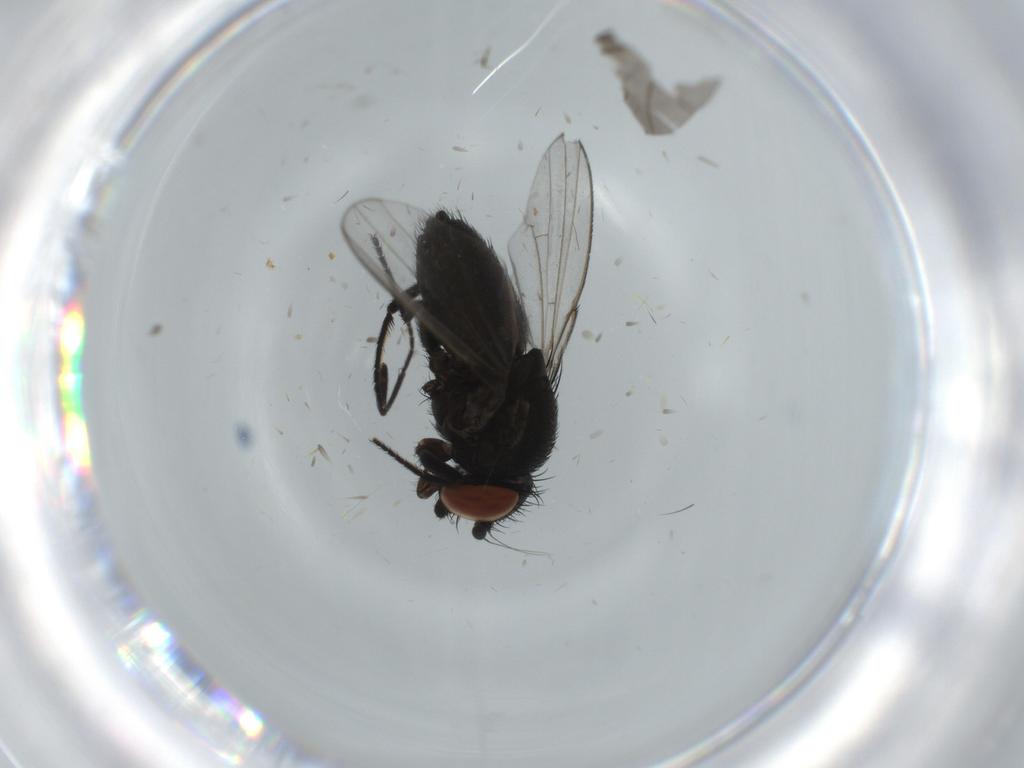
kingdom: Animalia
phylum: Arthropoda
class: Insecta
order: Diptera
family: Milichiidae
